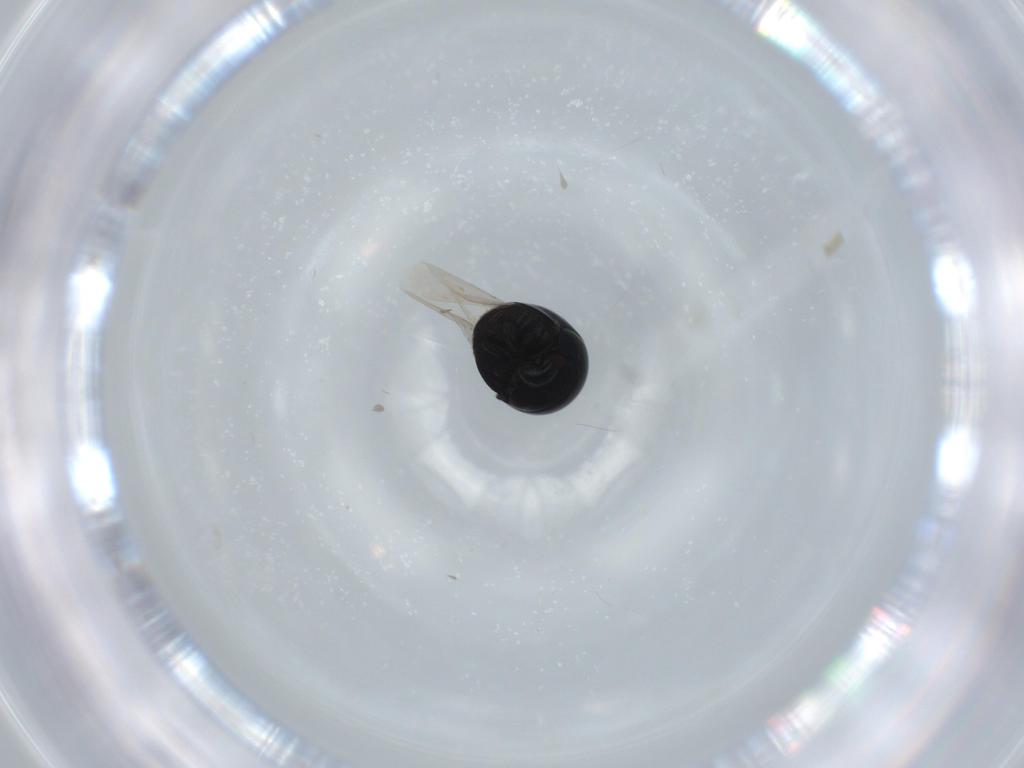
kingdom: Animalia
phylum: Arthropoda
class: Insecta
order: Coleoptera
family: Cybocephalidae
